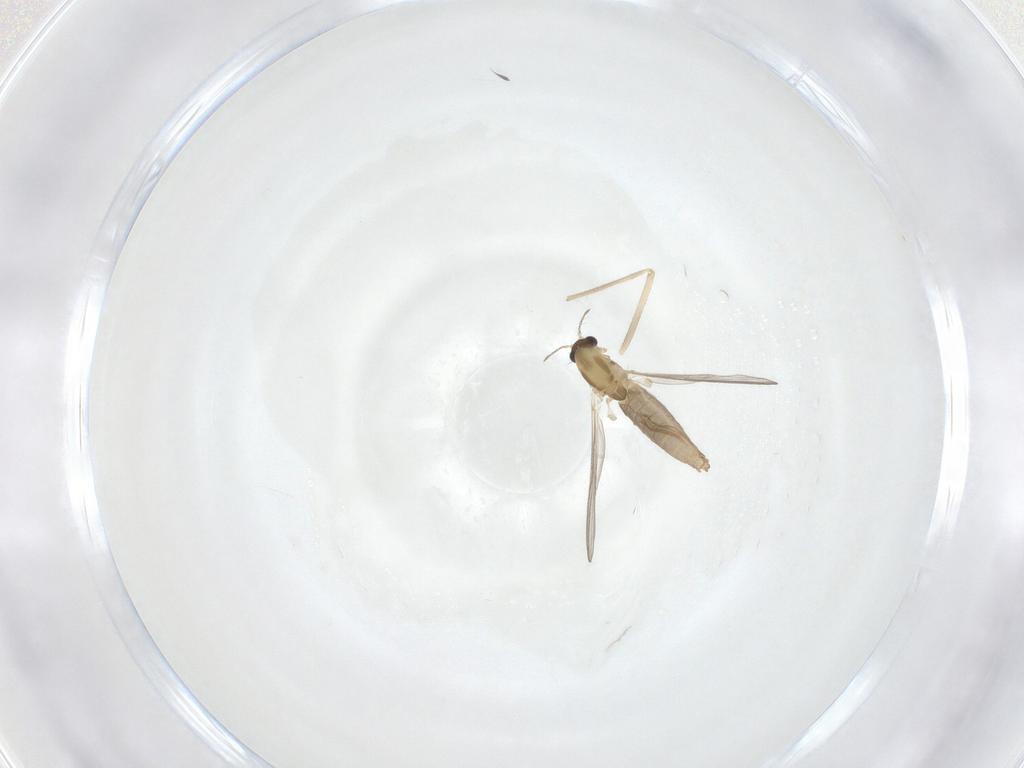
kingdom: Animalia
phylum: Arthropoda
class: Insecta
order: Diptera
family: Chironomidae
